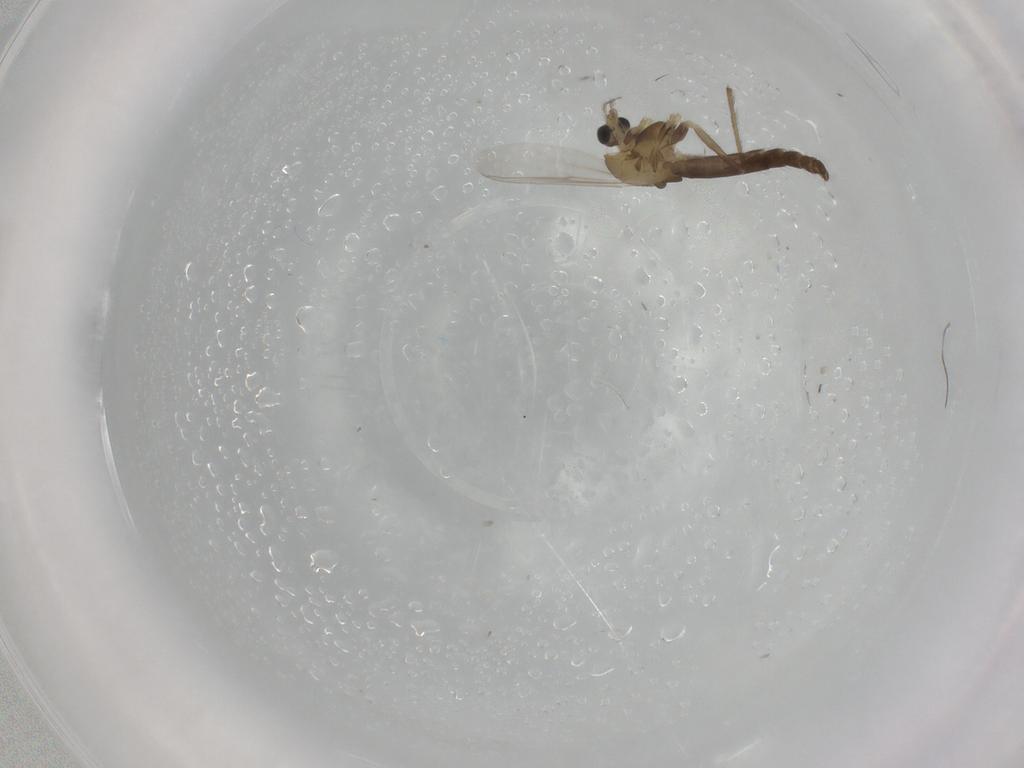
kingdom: Animalia
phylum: Arthropoda
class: Insecta
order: Diptera
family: Chironomidae
